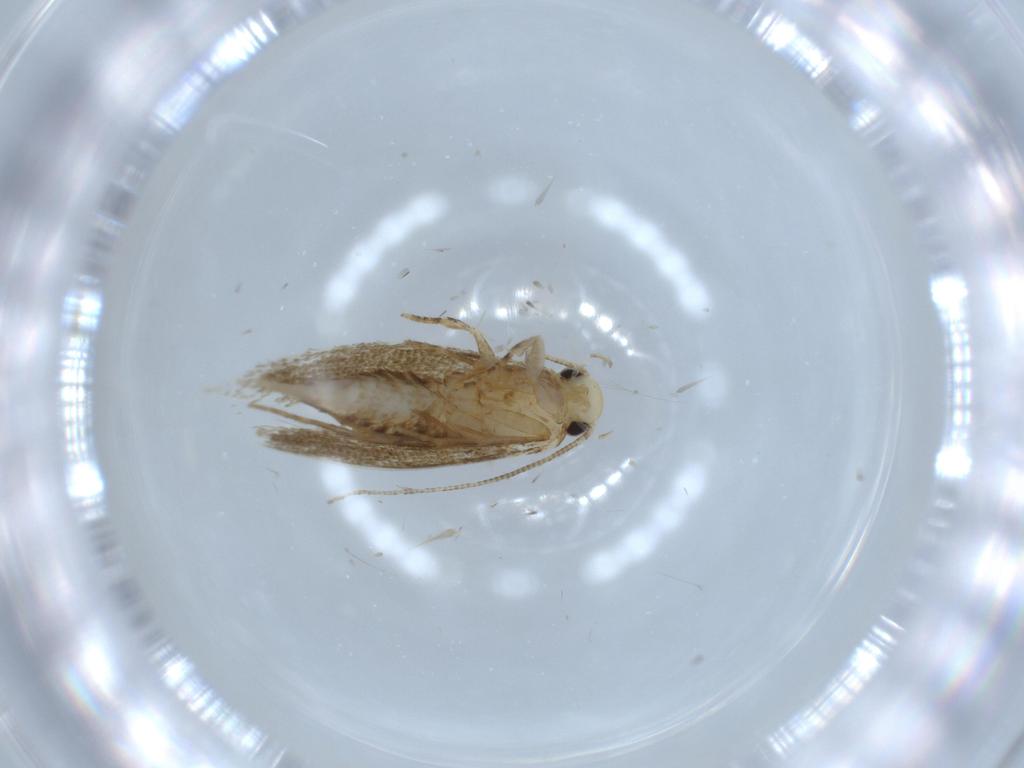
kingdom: Animalia
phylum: Arthropoda
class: Insecta
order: Lepidoptera
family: Tineidae
